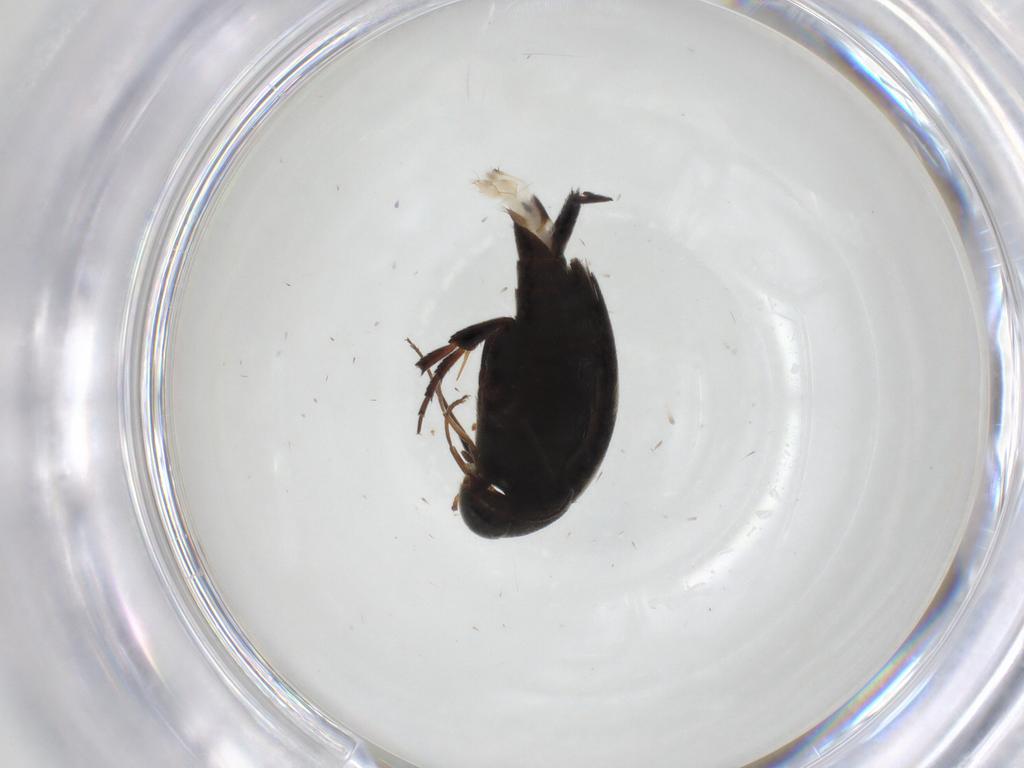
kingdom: Animalia
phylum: Arthropoda
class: Insecta
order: Coleoptera
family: Mordellidae
